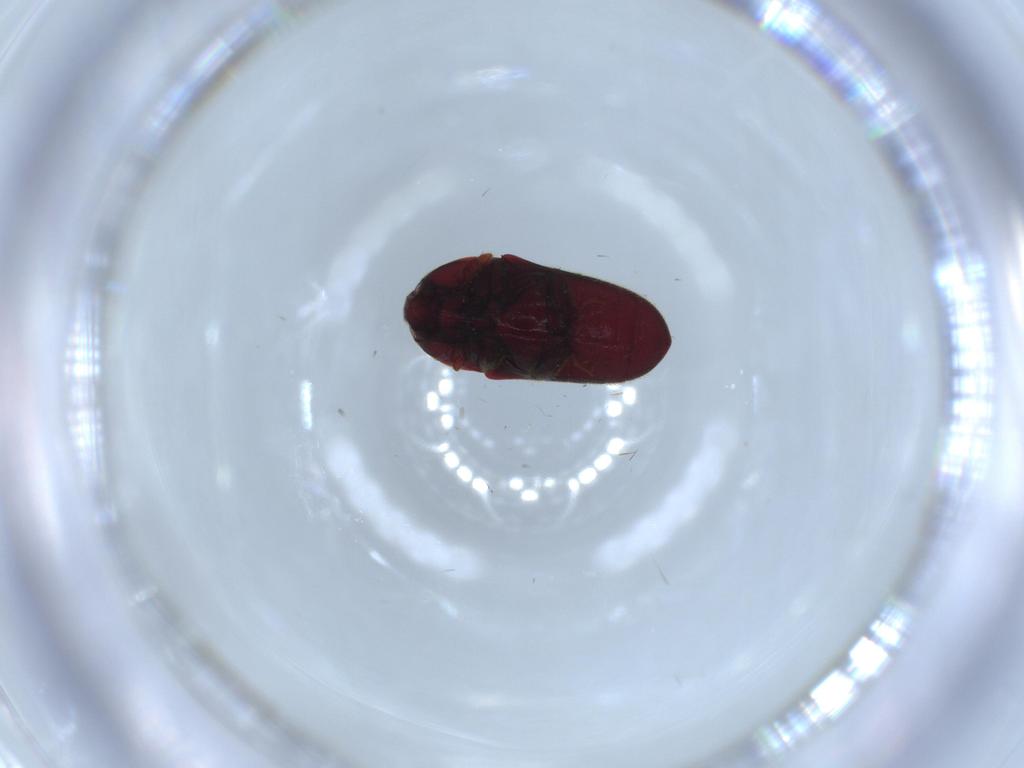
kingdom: Animalia
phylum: Arthropoda
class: Insecta
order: Coleoptera
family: Throscidae
